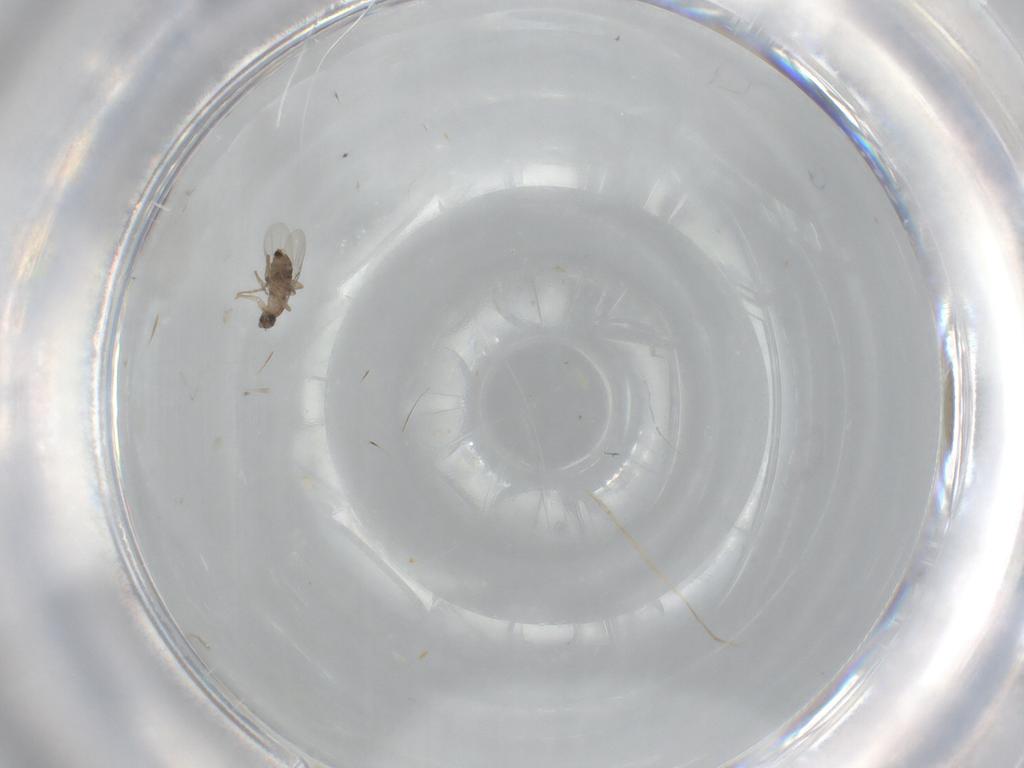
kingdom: Animalia
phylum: Arthropoda
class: Insecta
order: Diptera
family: Phoridae
